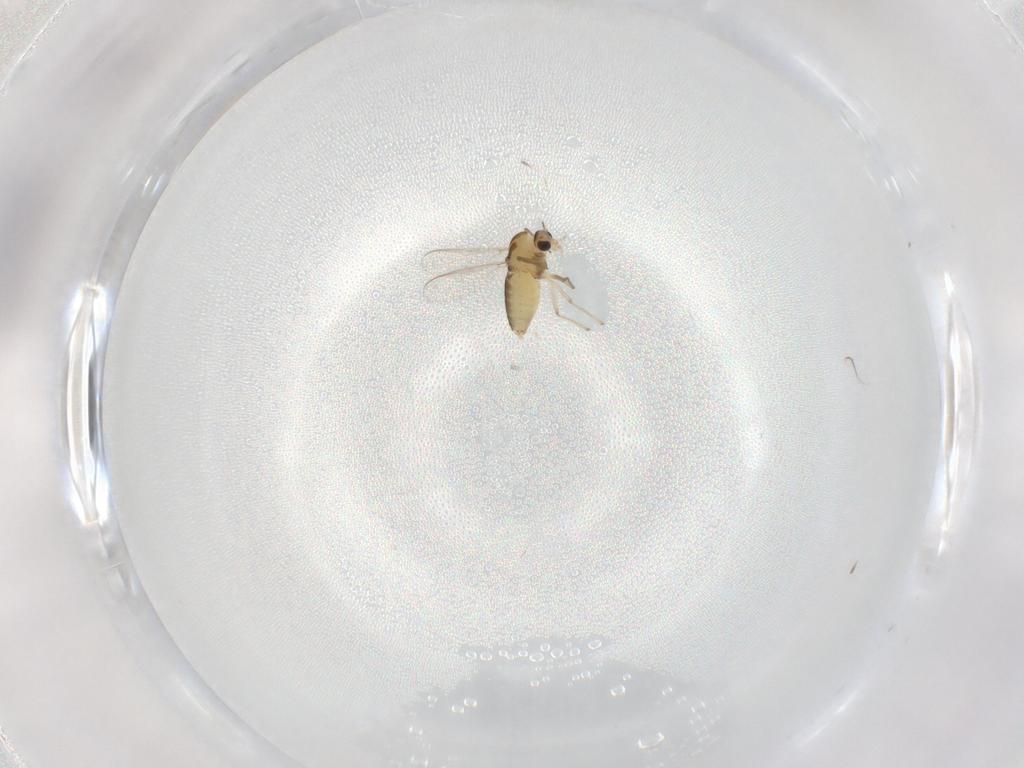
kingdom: Animalia
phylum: Arthropoda
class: Insecta
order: Diptera
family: Chironomidae
